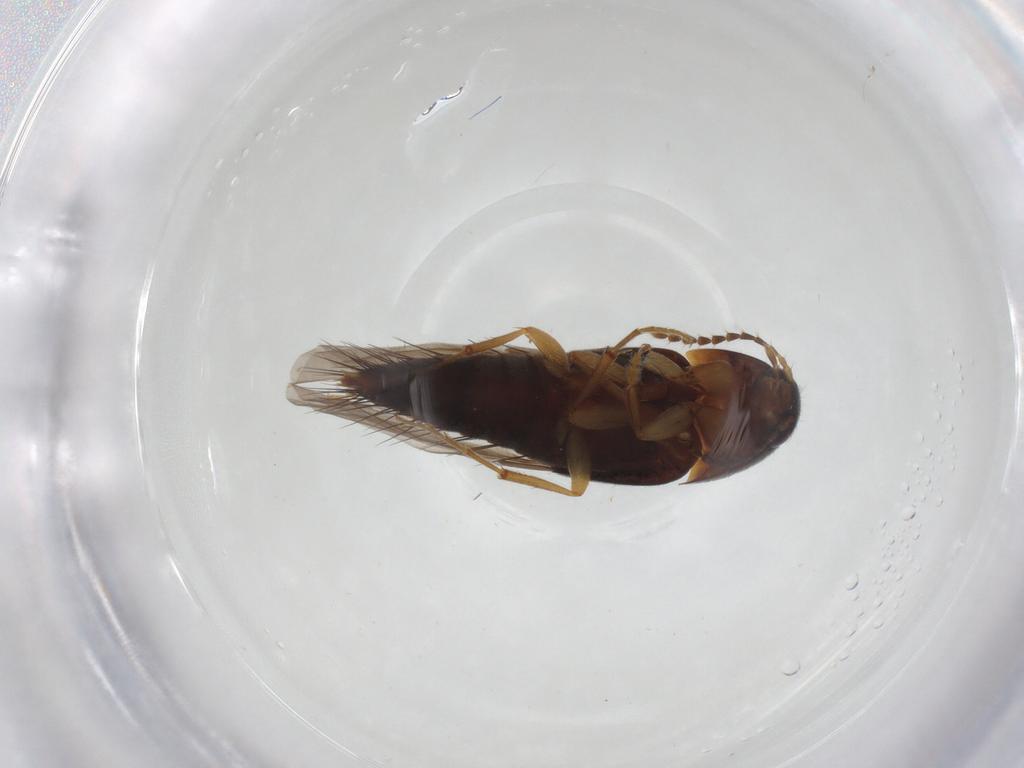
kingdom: Animalia
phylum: Arthropoda
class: Insecta
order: Coleoptera
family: Staphylinidae
